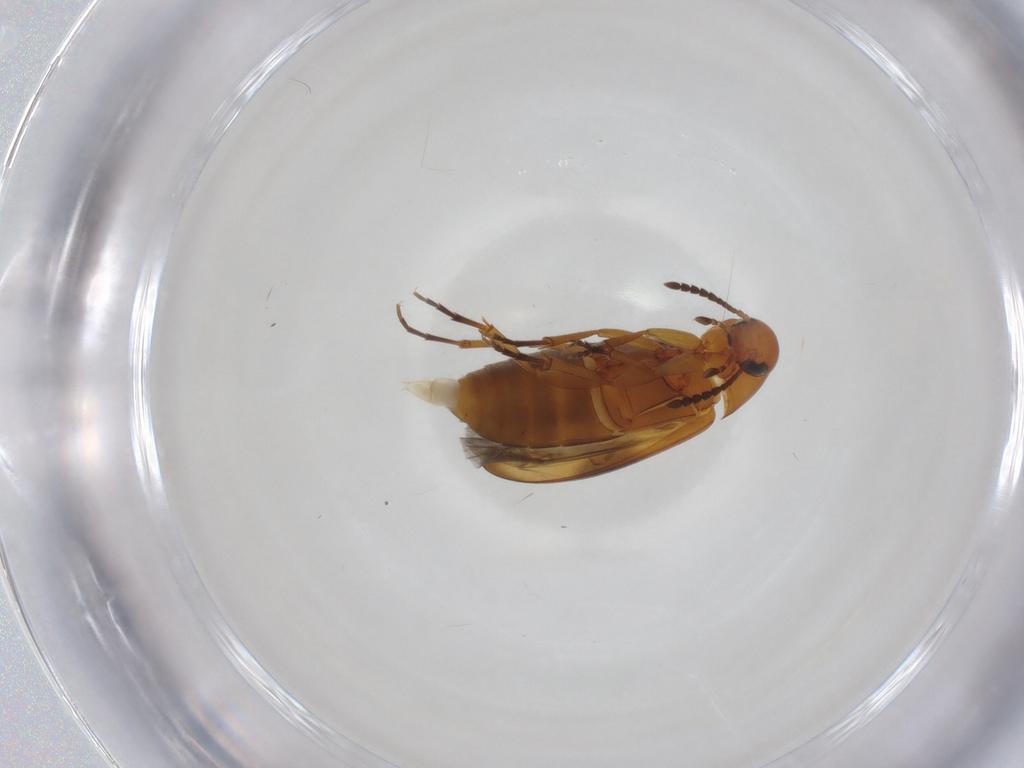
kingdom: Animalia
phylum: Arthropoda
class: Insecta
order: Coleoptera
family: Scraptiidae
